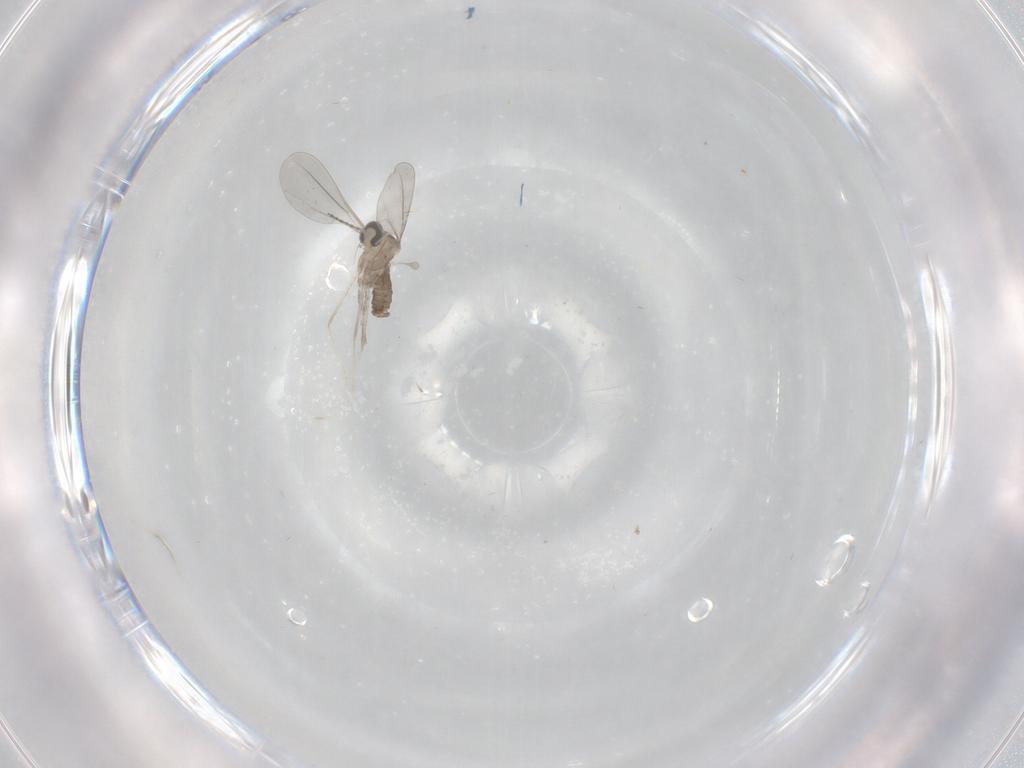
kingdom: Animalia
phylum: Arthropoda
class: Insecta
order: Diptera
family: Cecidomyiidae
